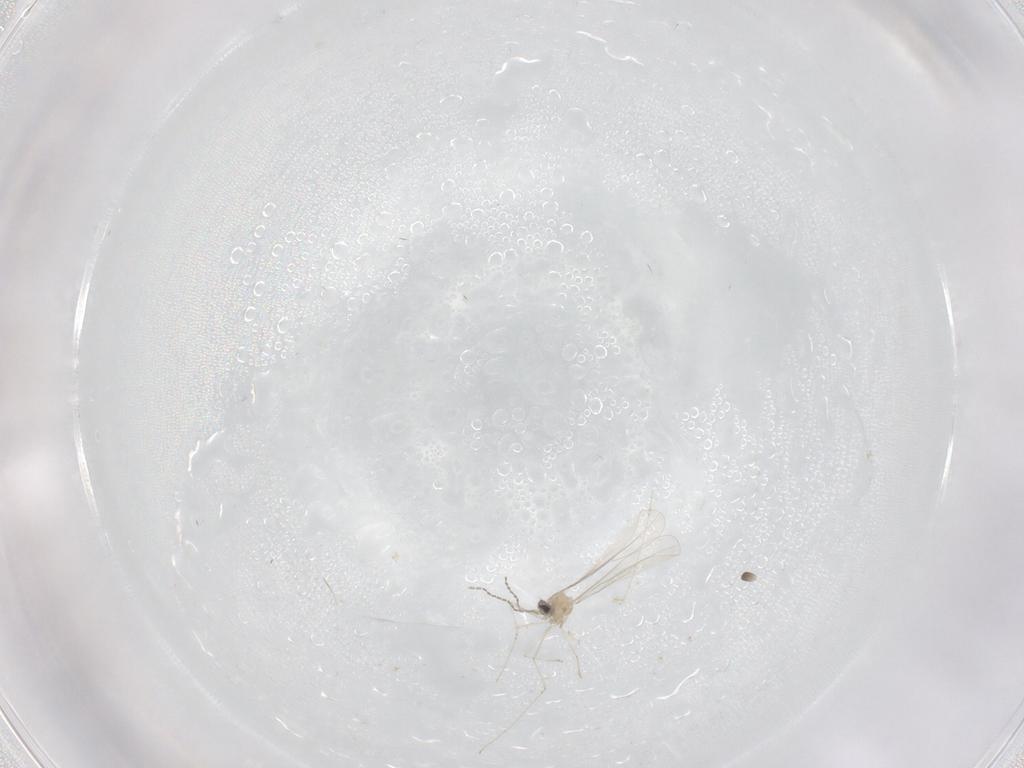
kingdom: Animalia
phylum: Arthropoda
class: Insecta
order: Diptera
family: Cecidomyiidae
